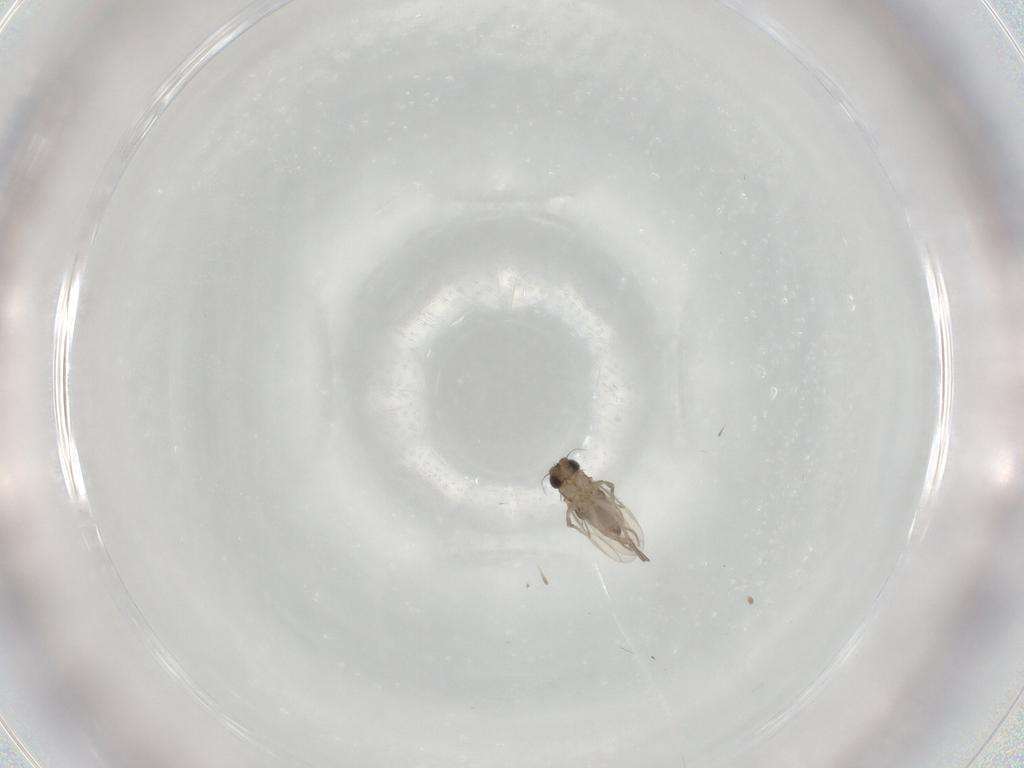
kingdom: Animalia
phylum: Arthropoda
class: Insecta
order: Diptera
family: Phoridae
